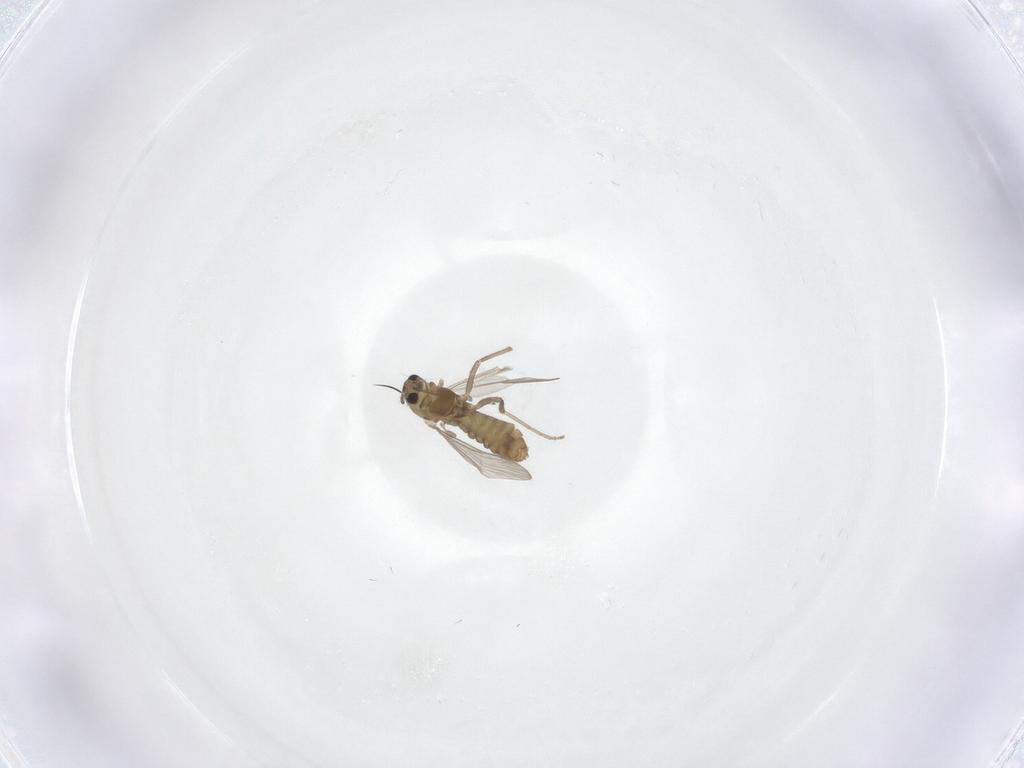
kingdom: Animalia
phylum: Arthropoda
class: Insecta
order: Diptera
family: Chironomidae
